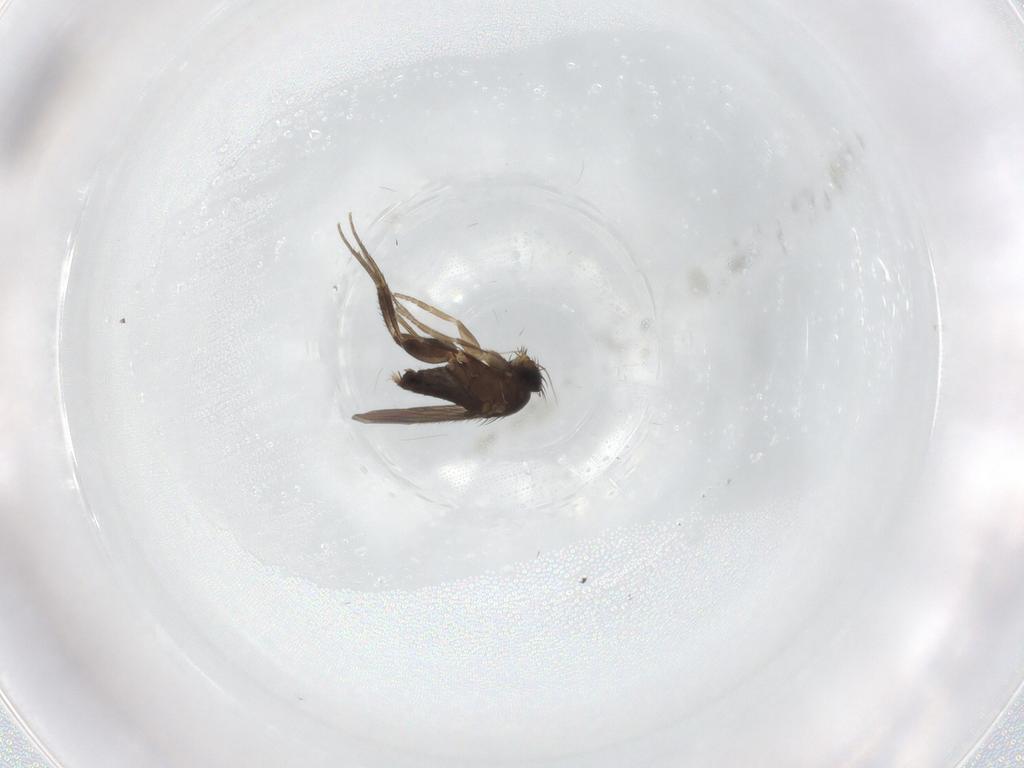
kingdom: Animalia
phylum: Arthropoda
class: Insecta
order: Diptera
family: Phoridae
